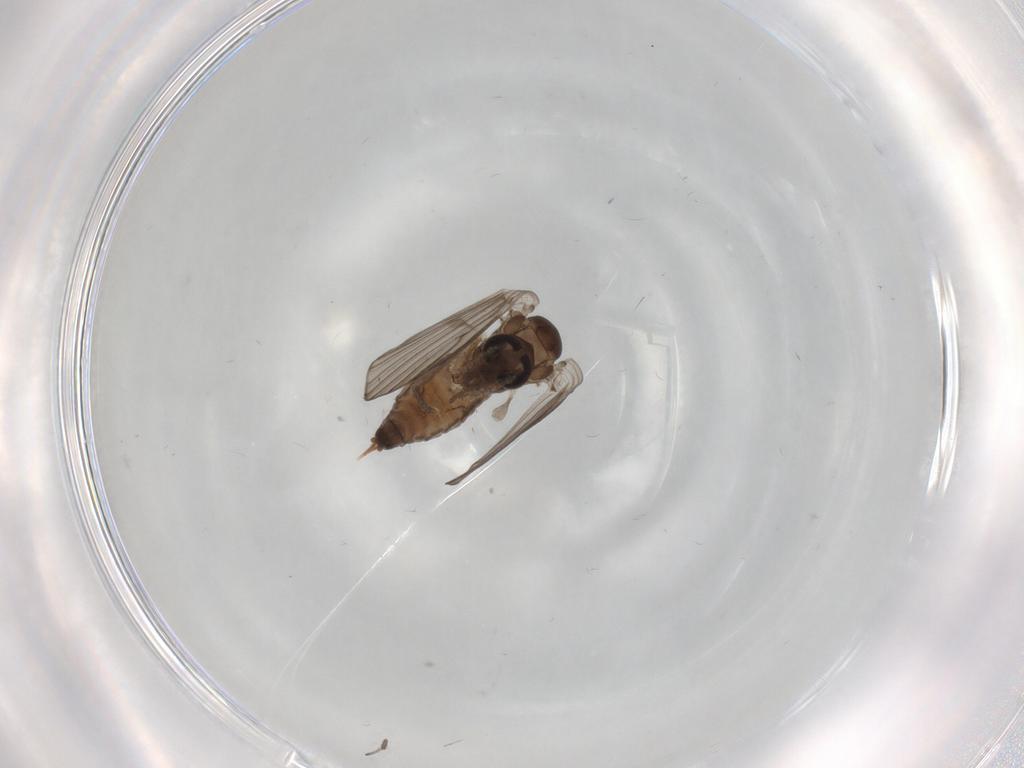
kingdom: Animalia
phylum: Arthropoda
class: Insecta
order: Diptera
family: Psychodidae
